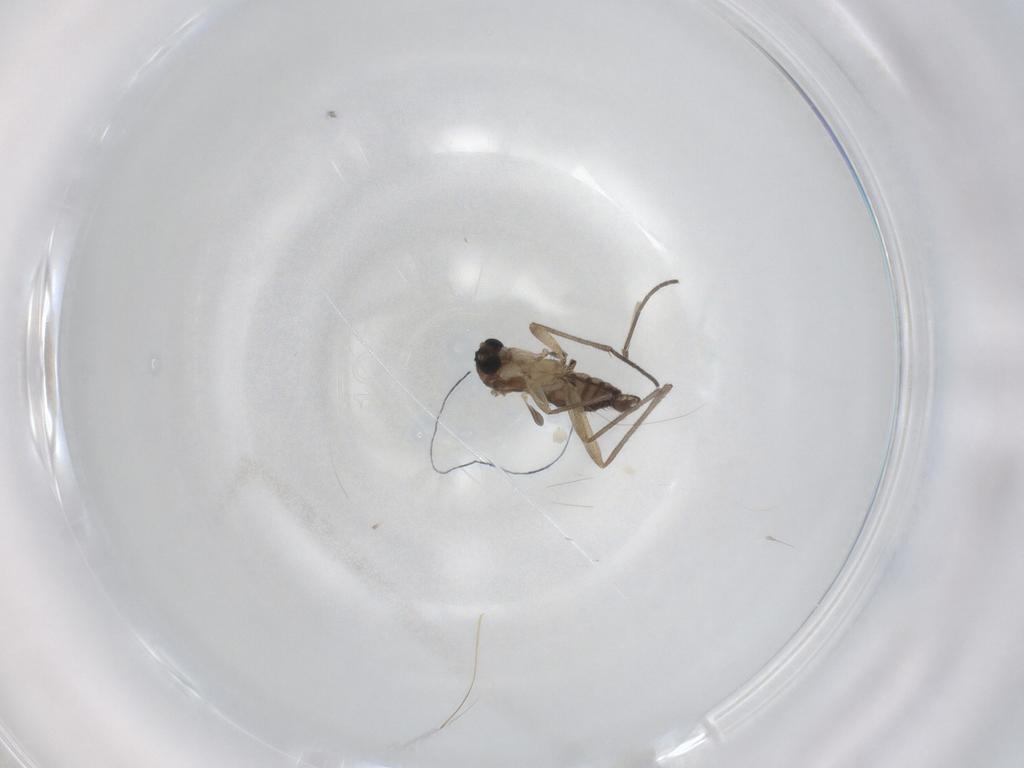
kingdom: Animalia
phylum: Arthropoda
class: Insecta
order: Diptera
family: Sciaridae
